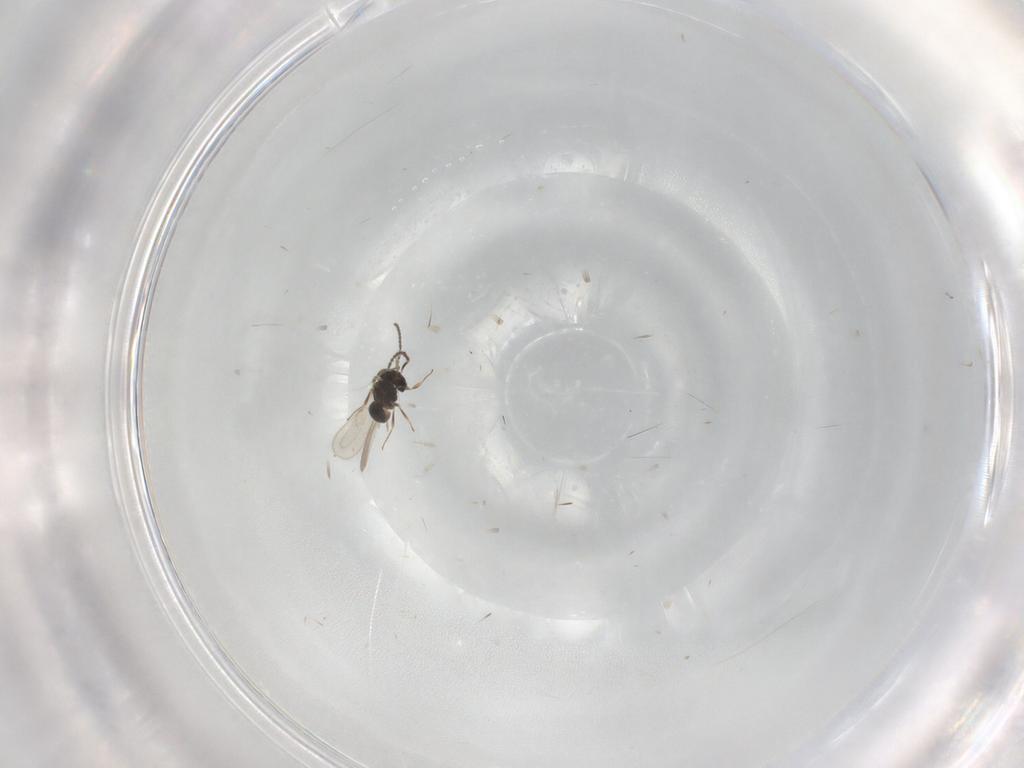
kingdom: Animalia
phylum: Arthropoda
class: Insecta
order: Hymenoptera
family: Scelionidae
